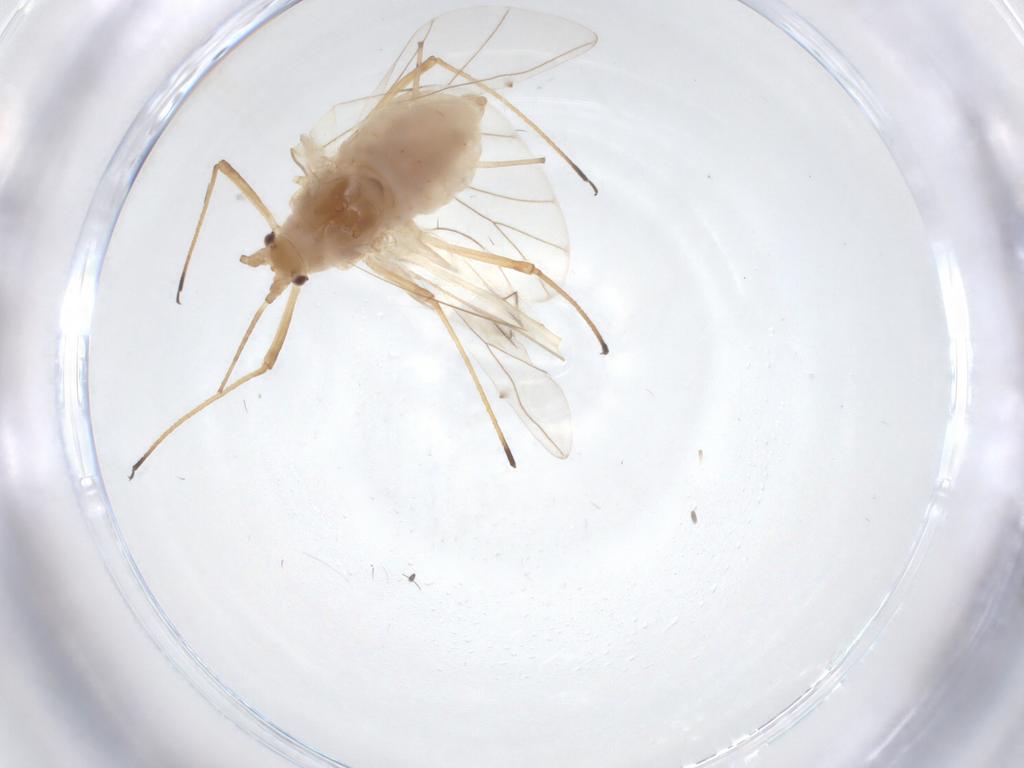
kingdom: Animalia
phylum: Arthropoda
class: Insecta
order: Hemiptera
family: Aphididae
